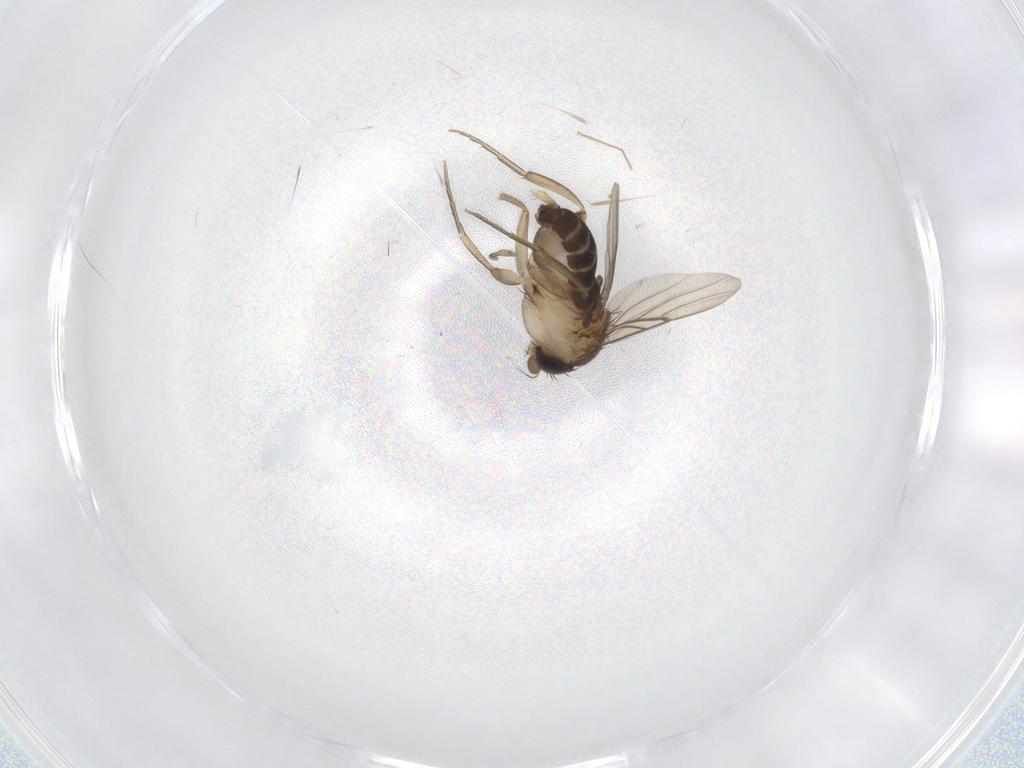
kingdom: Animalia
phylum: Arthropoda
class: Insecta
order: Diptera
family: Phoridae
